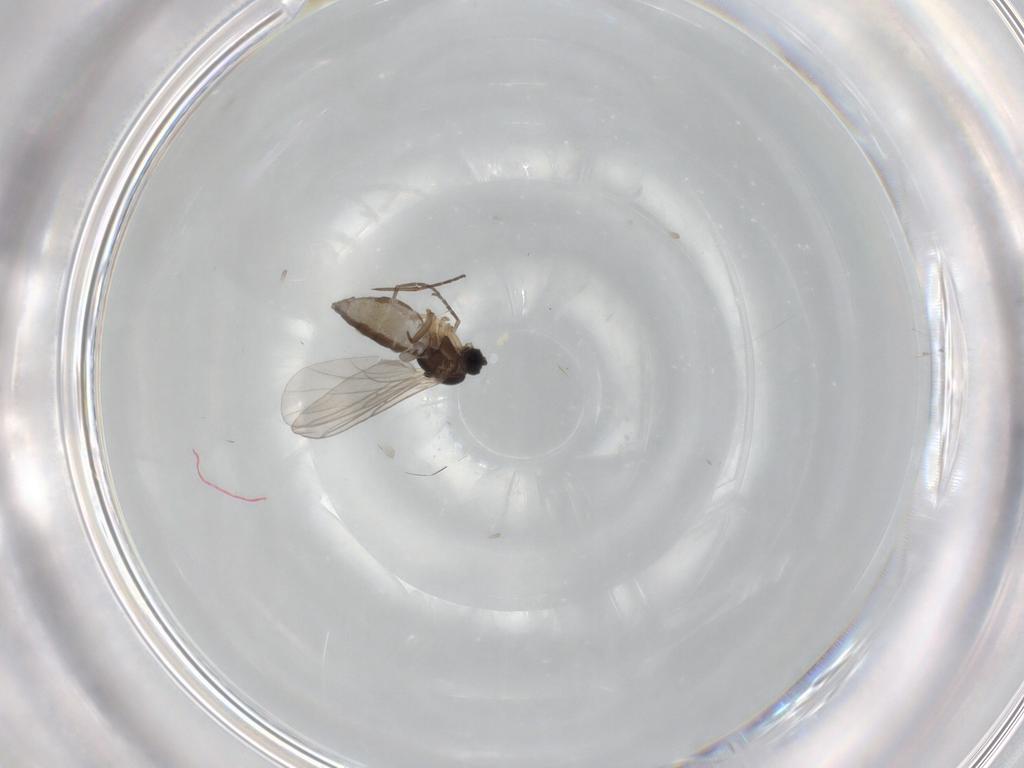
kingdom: Animalia
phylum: Arthropoda
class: Insecta
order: Diptera
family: Sciaridae
